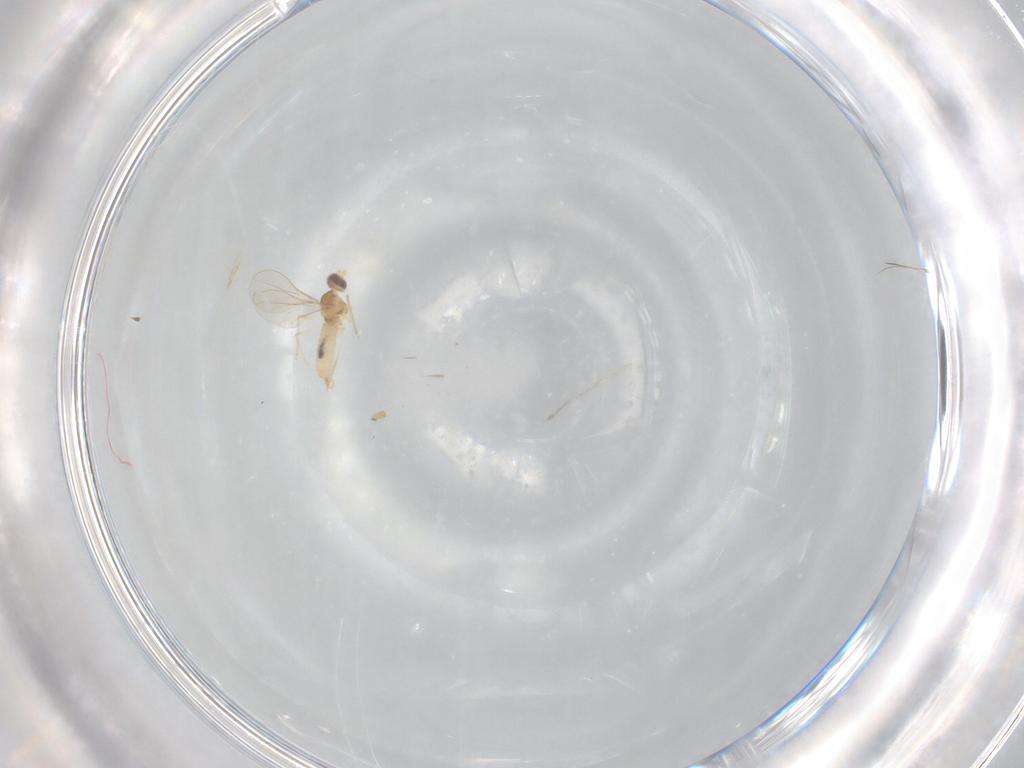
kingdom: Animalia
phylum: Arthropoda
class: Insecta
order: Diptera
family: Cecidomyiidae
